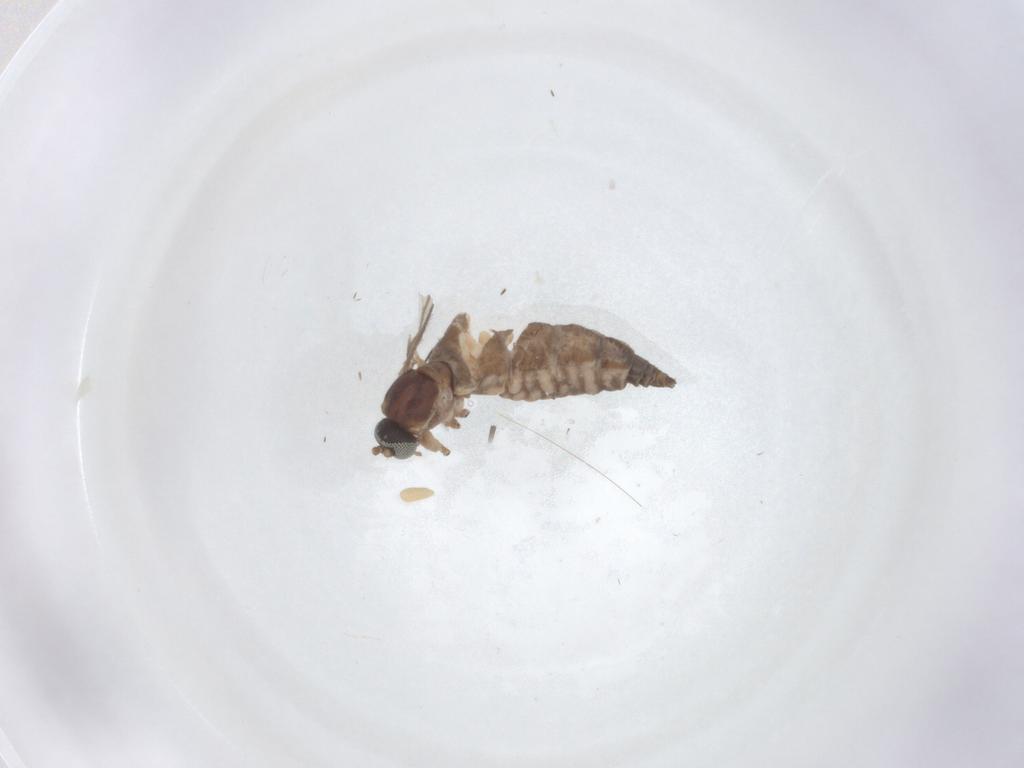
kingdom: Animalia
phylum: Arthropoda
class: Insecta
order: Diptera
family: Sciaridae
